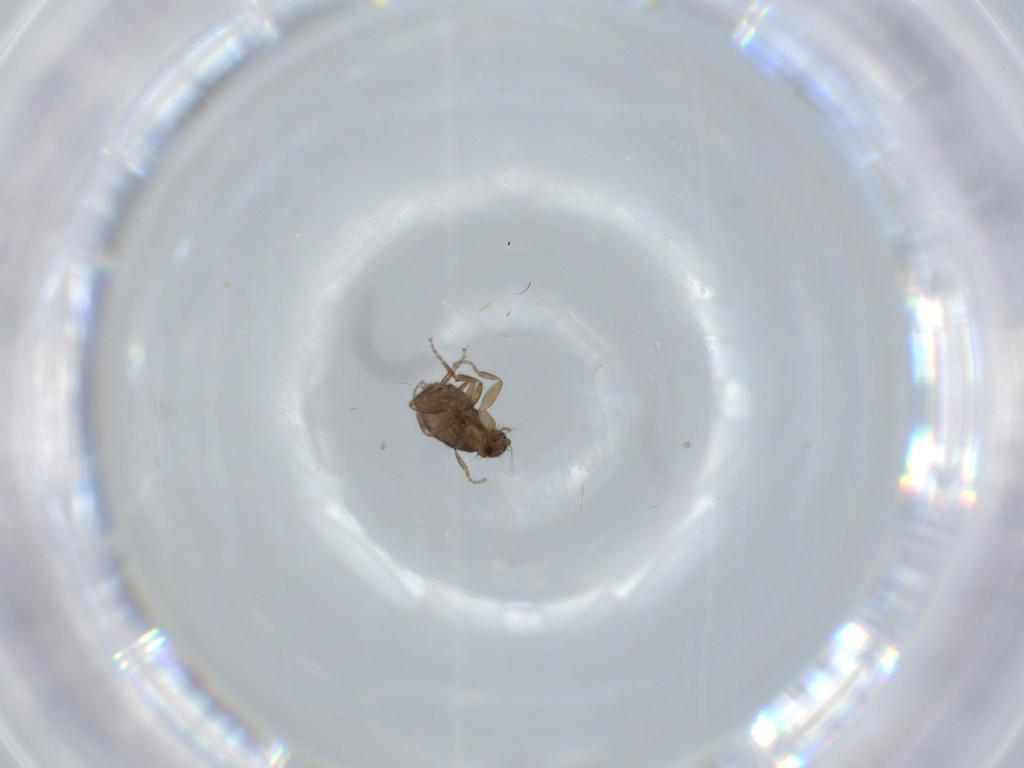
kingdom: Animalia
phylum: Arthropoda
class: Insecta
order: Diptera
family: Phoridae
